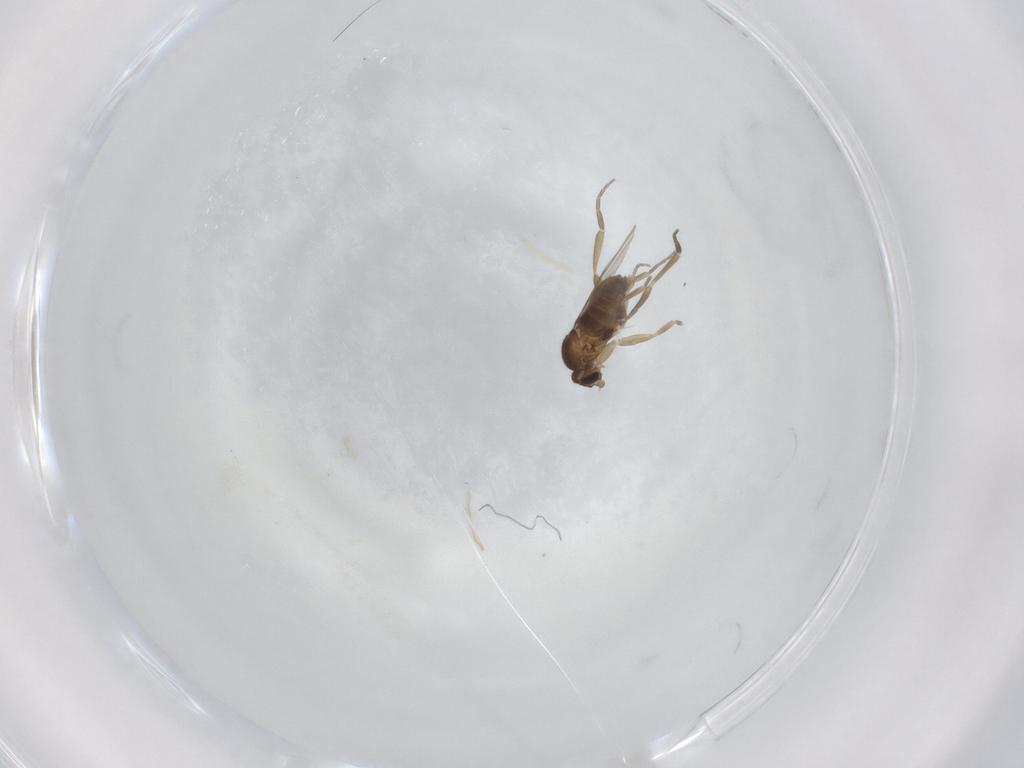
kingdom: Animalia
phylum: Arthropoda
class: Insecta
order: Diptera
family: Phoridae
